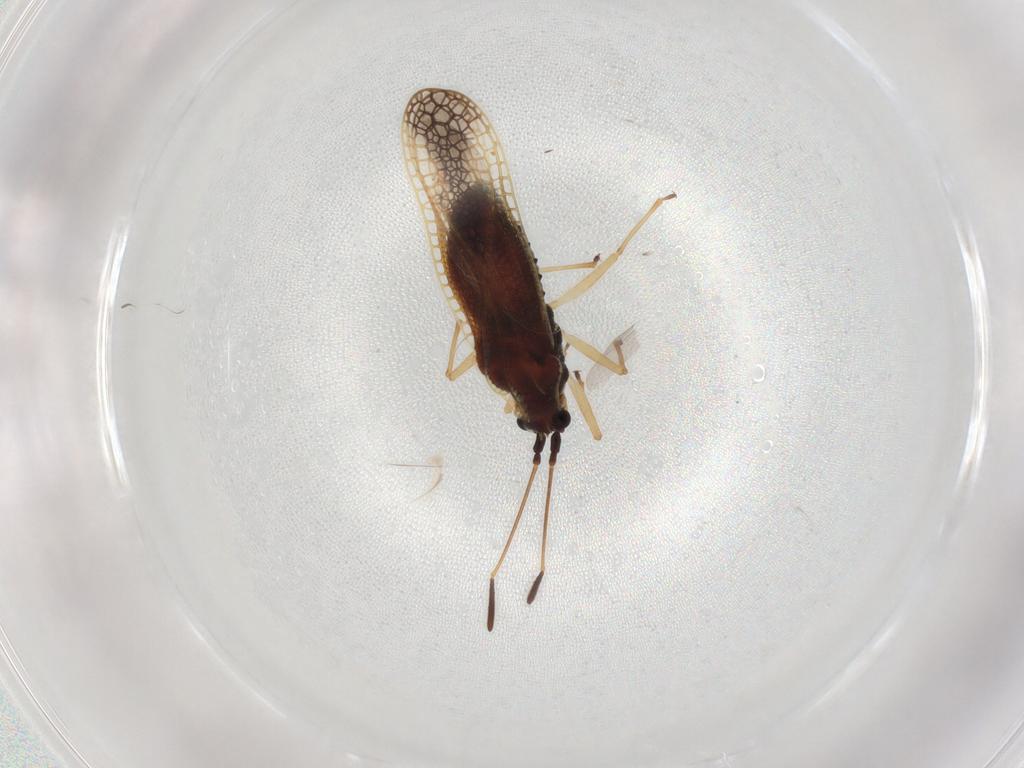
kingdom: Animalia
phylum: Arthropoda
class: Insecta
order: Hemiptera
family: Tingidae
